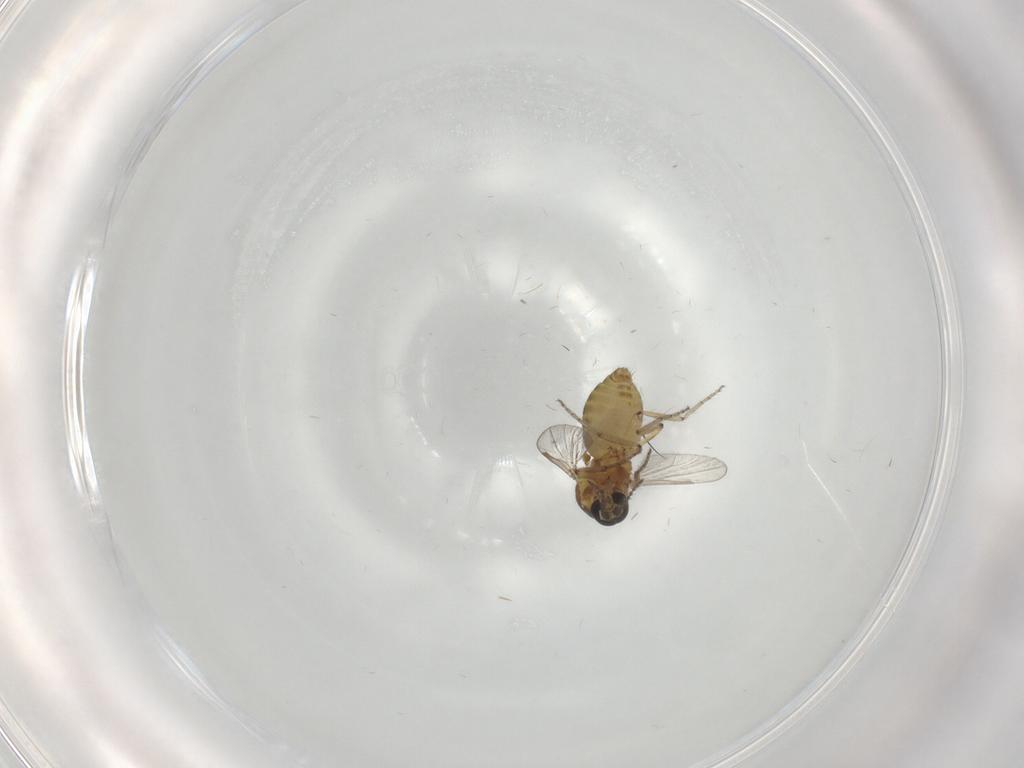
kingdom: Animalia
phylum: Arthropoda
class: Insecta
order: Diptera
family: Ceratopogonidae
